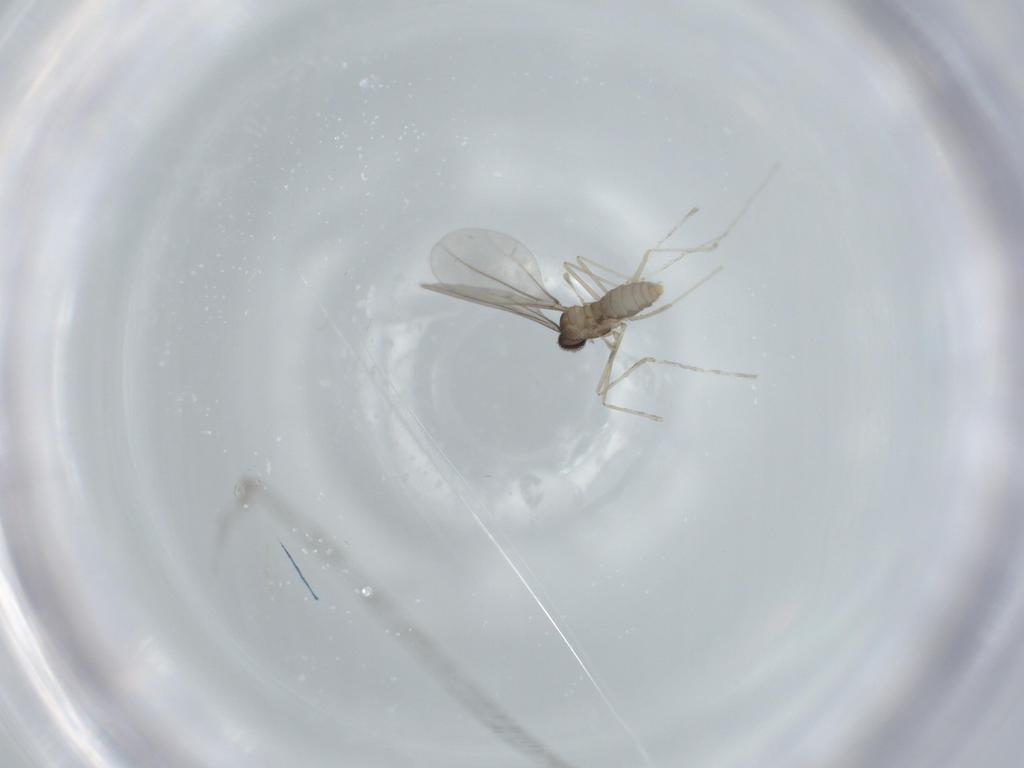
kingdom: Animalia
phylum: Arthropoda
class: Insecta
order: Diptera
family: Cecidomyiidae
